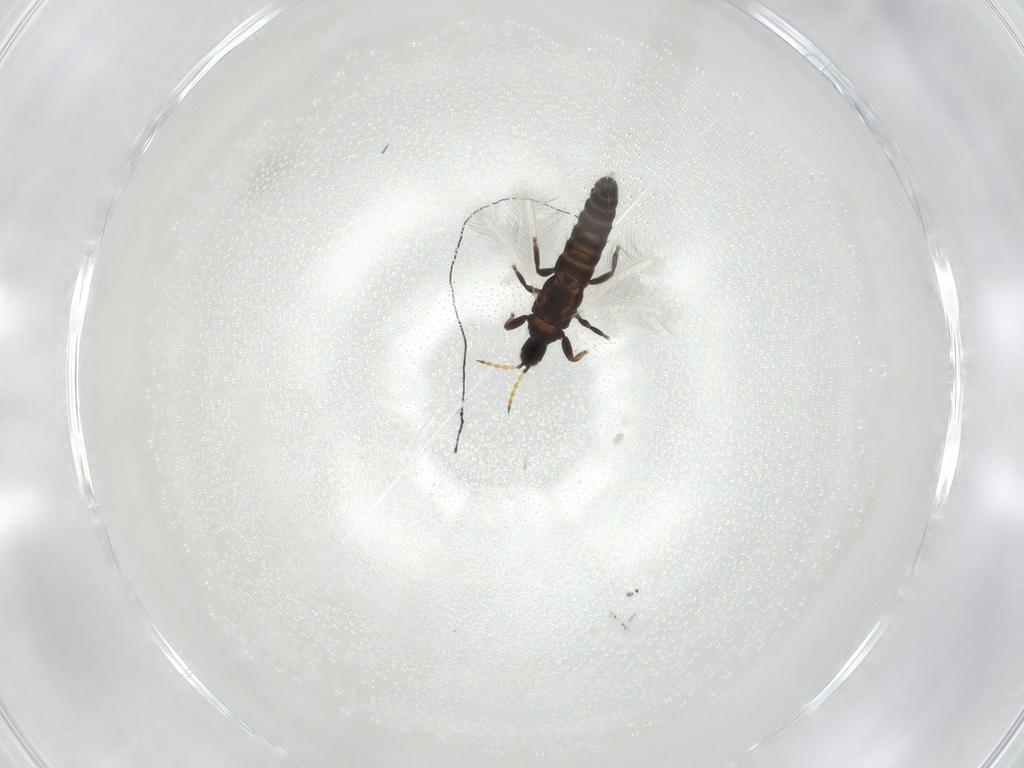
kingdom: Animalia
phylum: Arthropoda
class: Insecta
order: Thysanoptera
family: Phlaeothripidae
